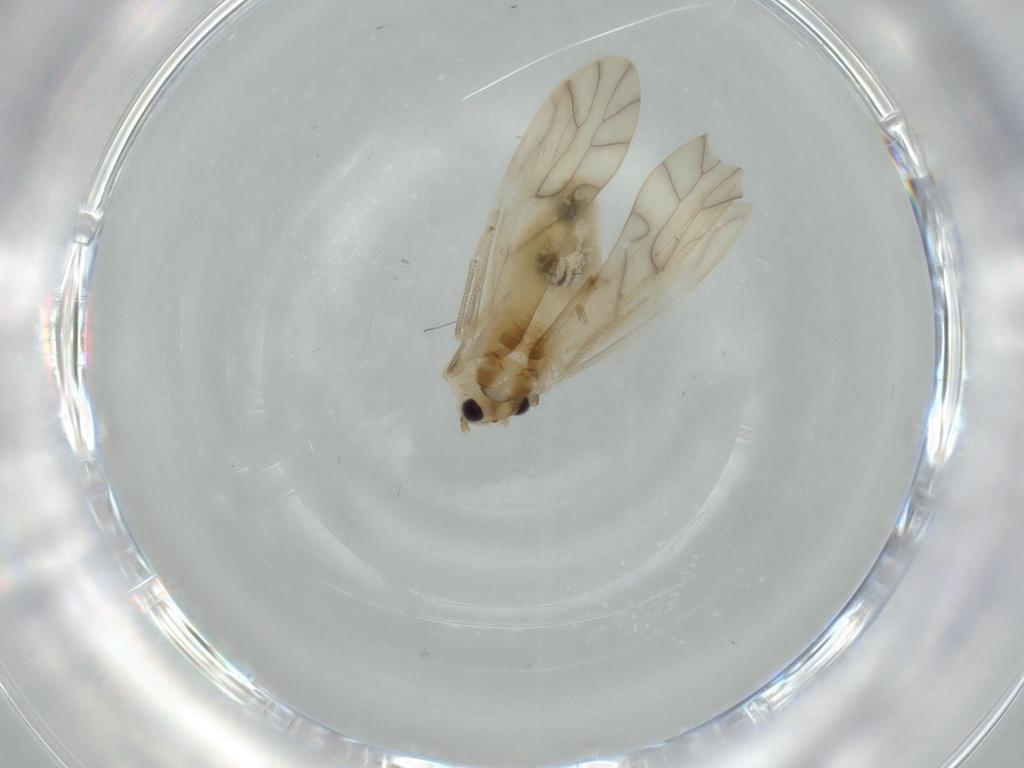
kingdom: Animalia
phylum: Arthropoda
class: Insecta
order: Psocodea
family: Caeciliusidae
